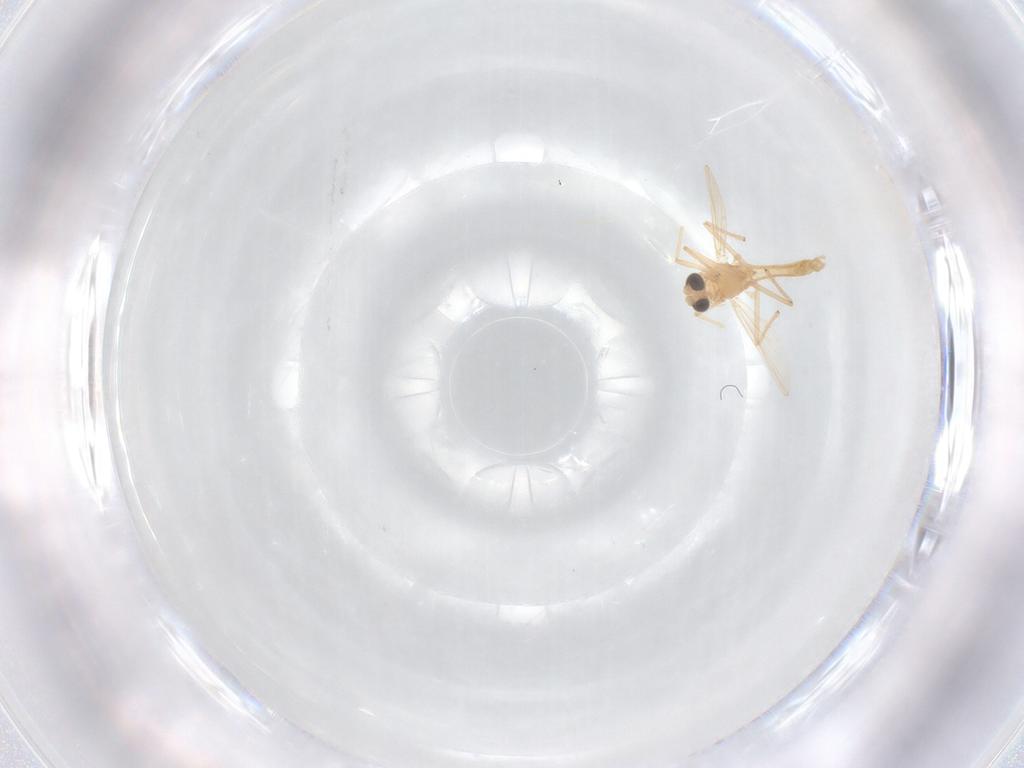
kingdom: Animalia
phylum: Arthropoda
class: Insecta
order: Diptera
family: Chironomidae
